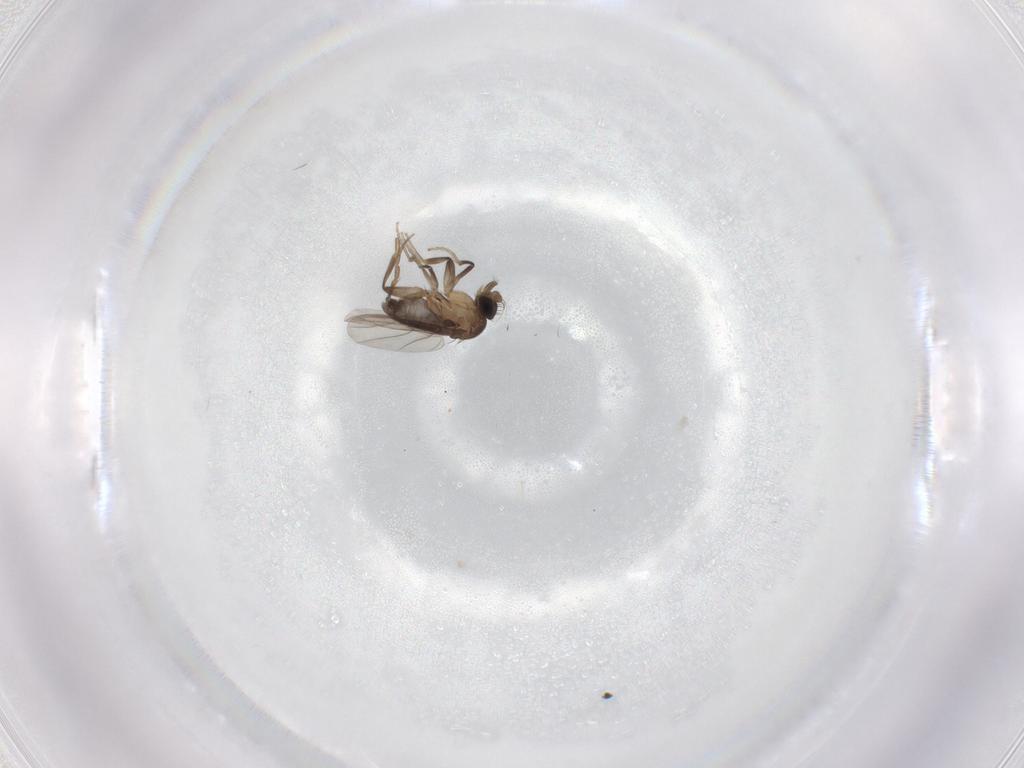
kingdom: Animalia
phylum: Arthropoda
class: Insecta
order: Diptera
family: Phoridae
